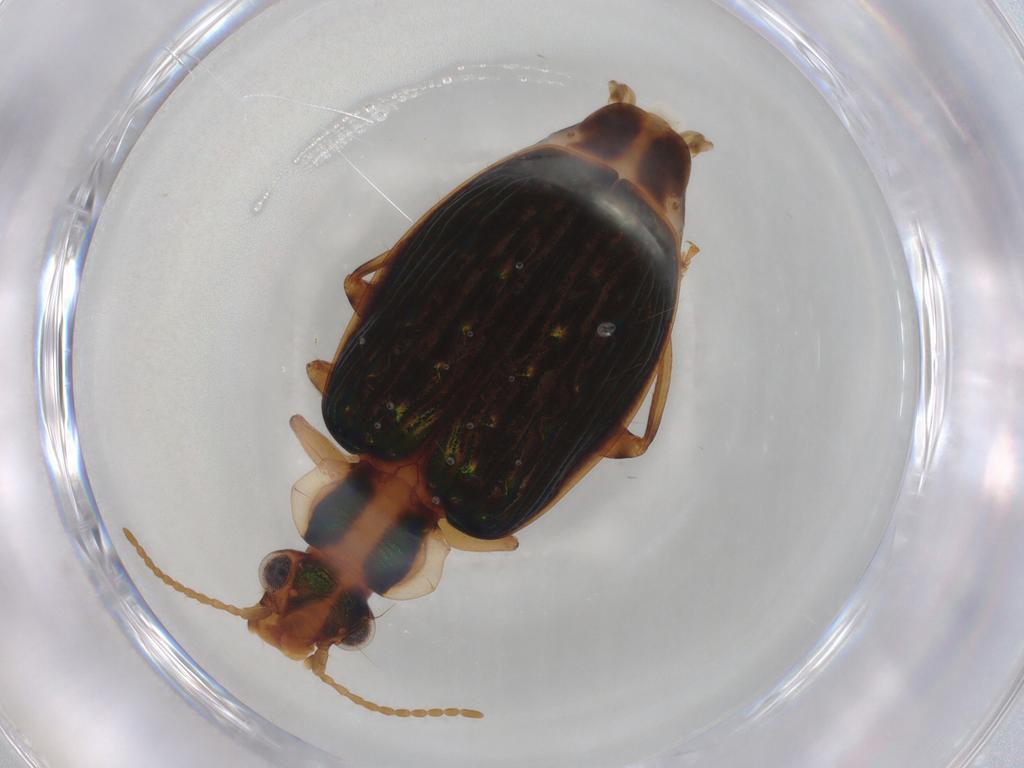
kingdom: Animalia
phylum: Arthropoda
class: Insecta
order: Coleoptera
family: Carabidae
